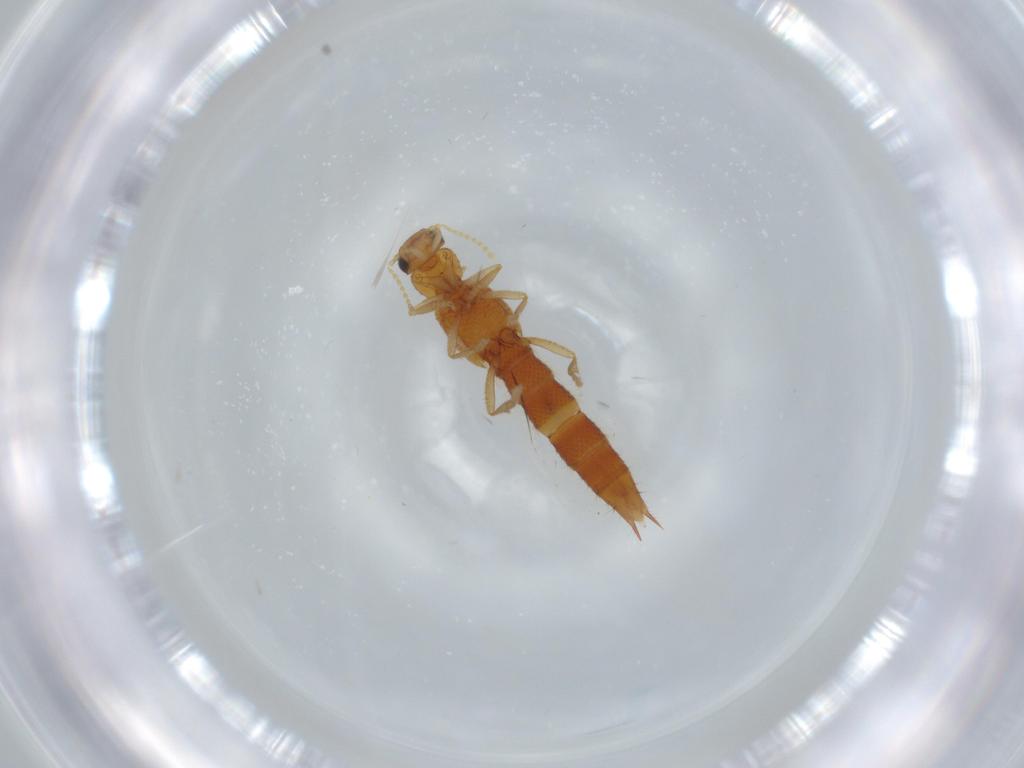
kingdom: Animalia
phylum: Arthropoda
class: Insecta
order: Coleoptera
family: Staphylinidae
